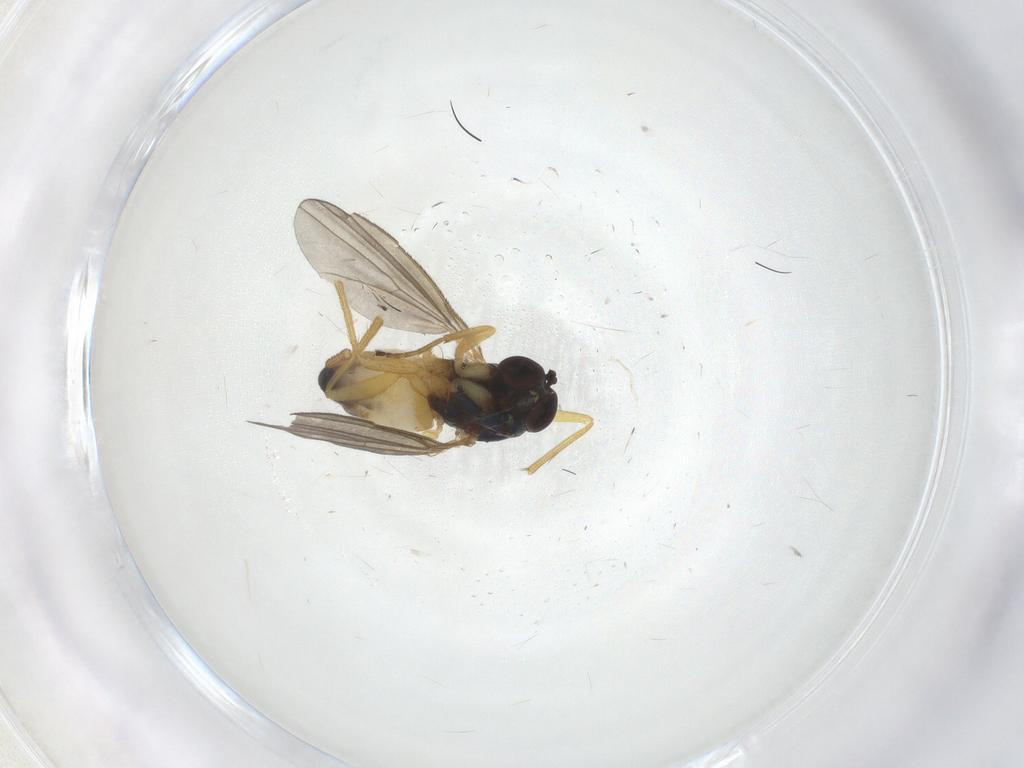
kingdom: Animalia
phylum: Arthropoda
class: Insecta
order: Diptera
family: Dolichopodidae
